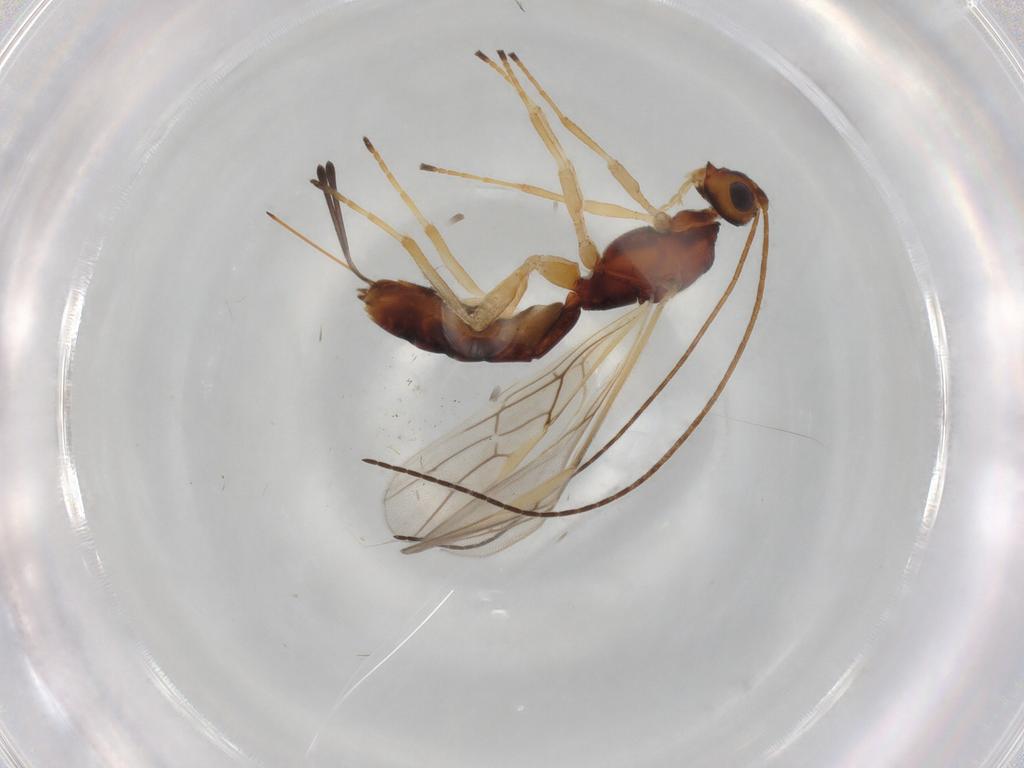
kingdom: Animalia
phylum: Arthropoda
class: Insecta
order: Hymenoptera
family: Braconidae
